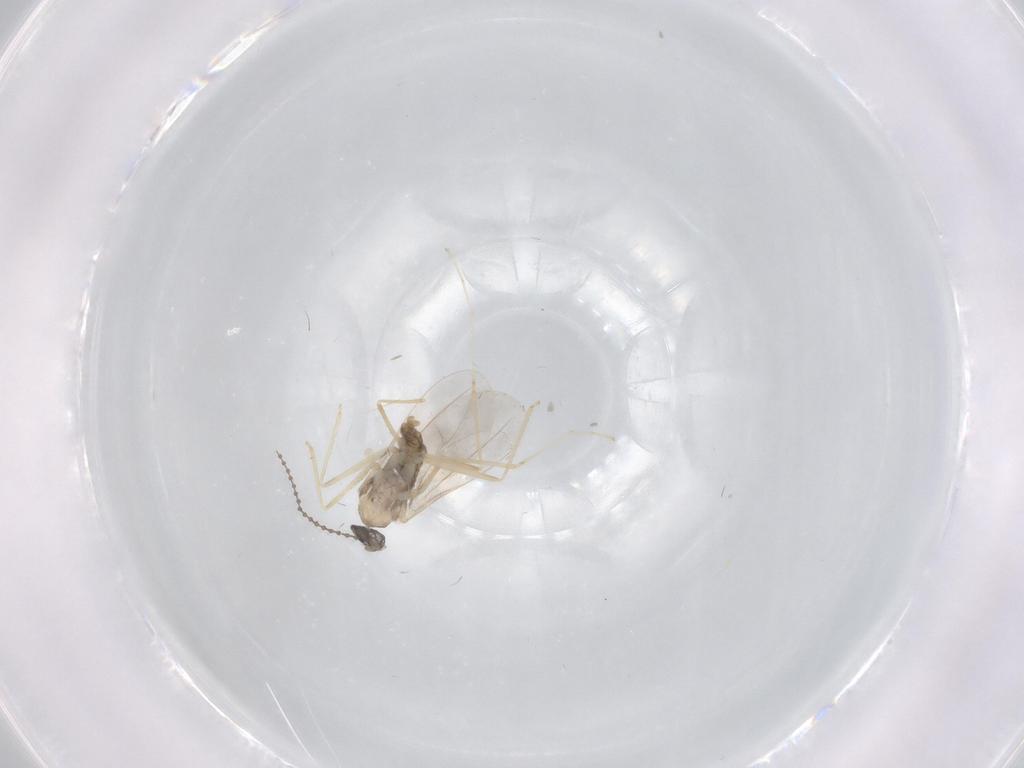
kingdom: Animalia
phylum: Arthropoda
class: Insecta
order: Diptera
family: Cecidomyiidae
